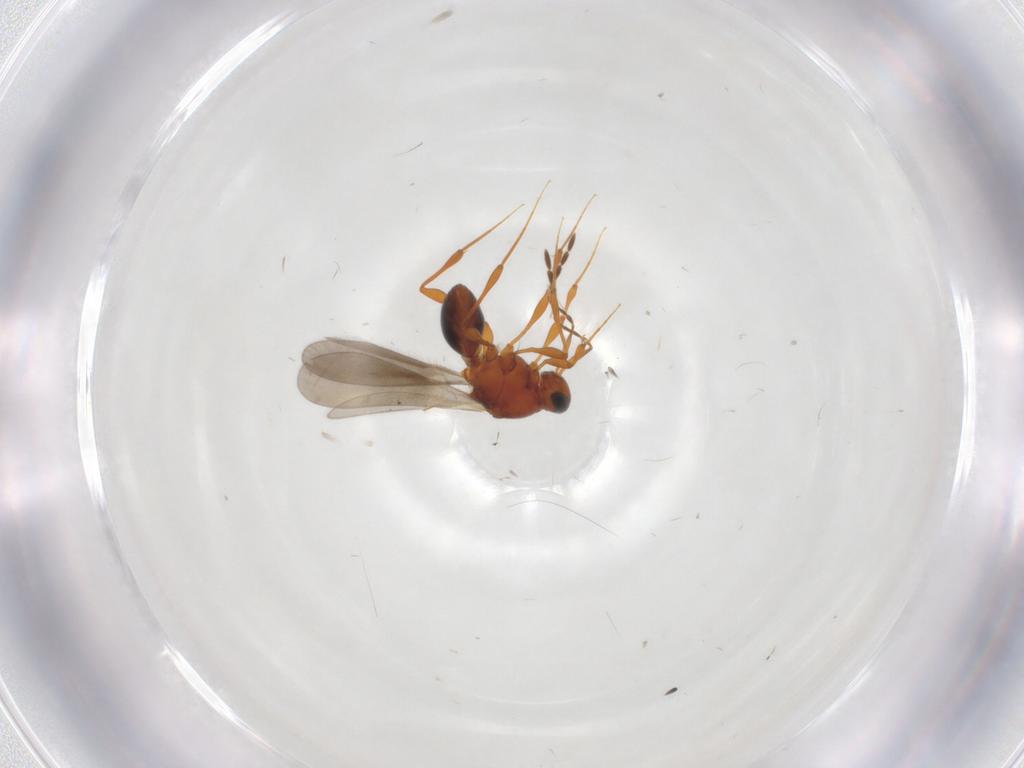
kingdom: Animalia
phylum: Arthropoda
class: Insecta
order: Hymenoptera
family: Platygastridae
